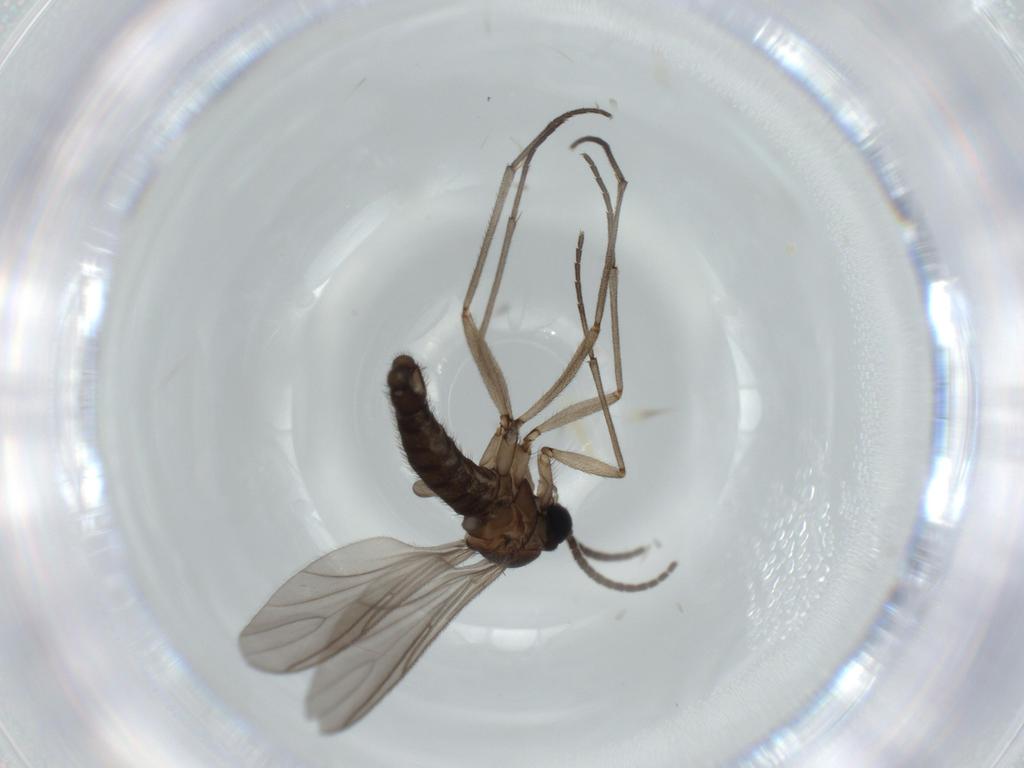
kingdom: Animalia
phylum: Arthropoda
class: Insecta
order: Diptera
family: Sciaridae
